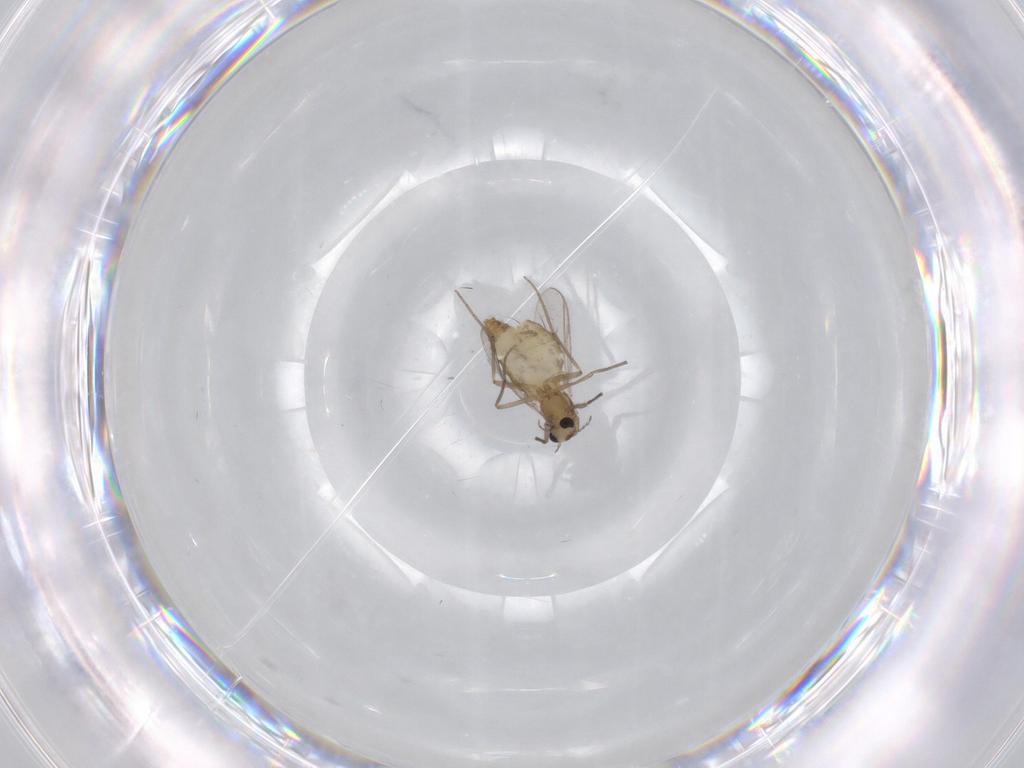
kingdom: Animalia
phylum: Arthropoda
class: Insecta
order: Diptera
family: Chironomidae
